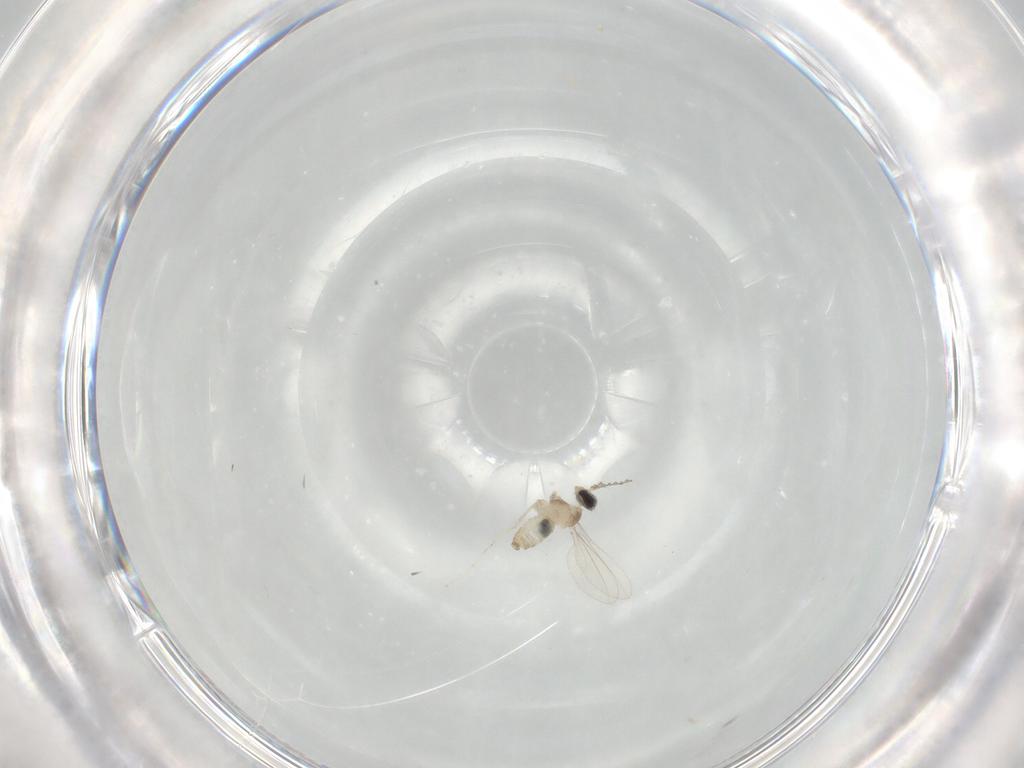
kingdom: Animalia
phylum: Arthropoda
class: Insecta
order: Diptera
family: Cecidomyiidae
